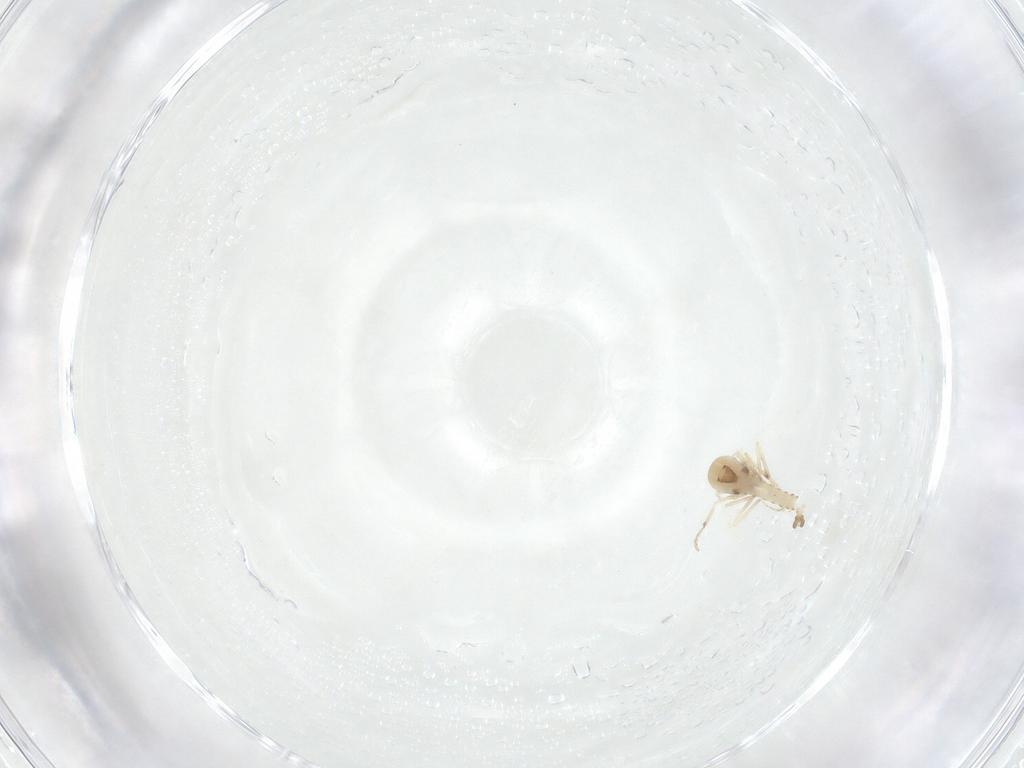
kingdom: Animalia
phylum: Arthropoda
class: Insecta
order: Diptera
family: Ceratopogonidae
